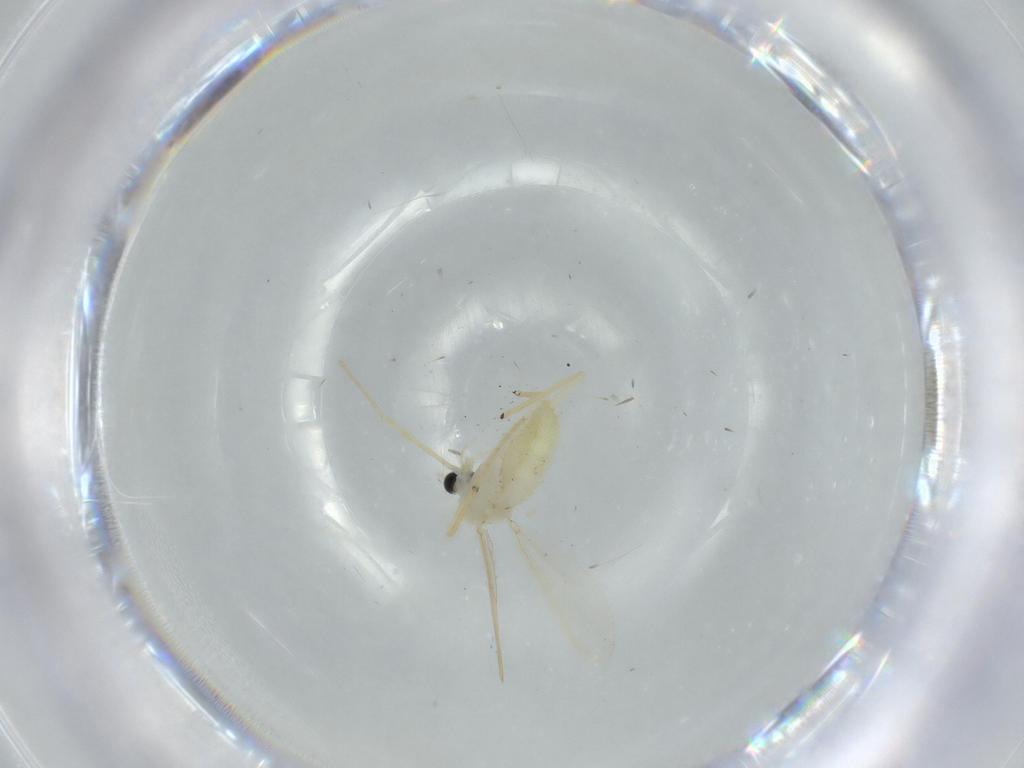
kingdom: Animalia
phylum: Arthropoda
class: Insecta
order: Diptera
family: Chironomidae
